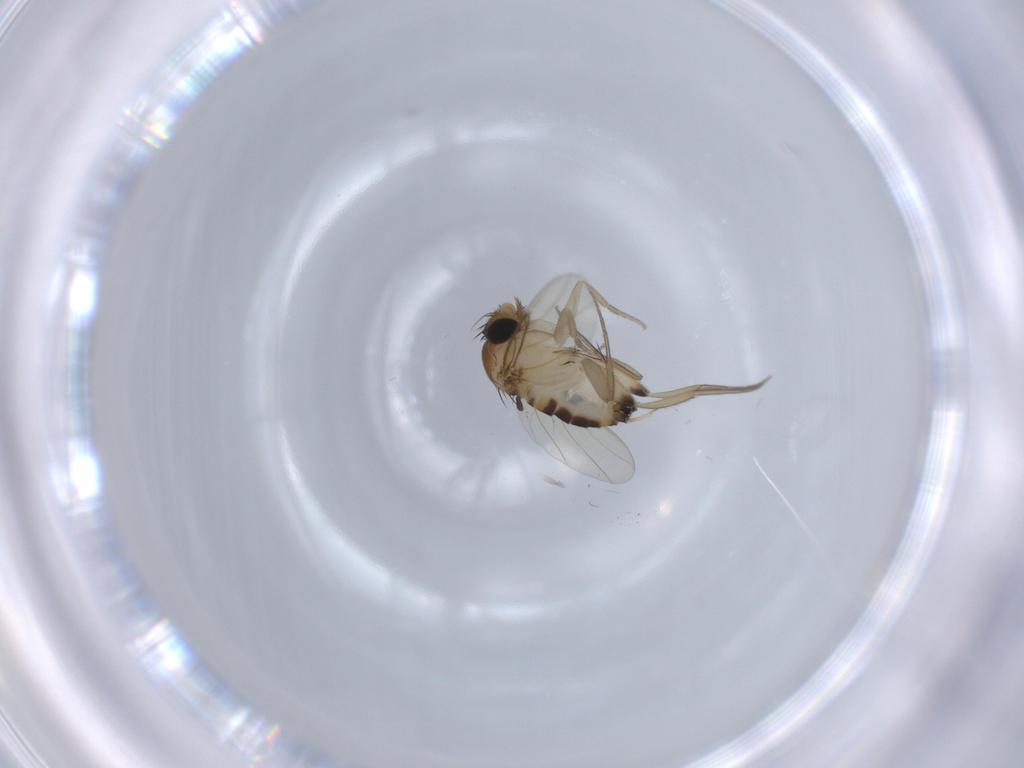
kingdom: Animalia
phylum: Arthropoda
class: Insecta
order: Diptera
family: Phoridae
